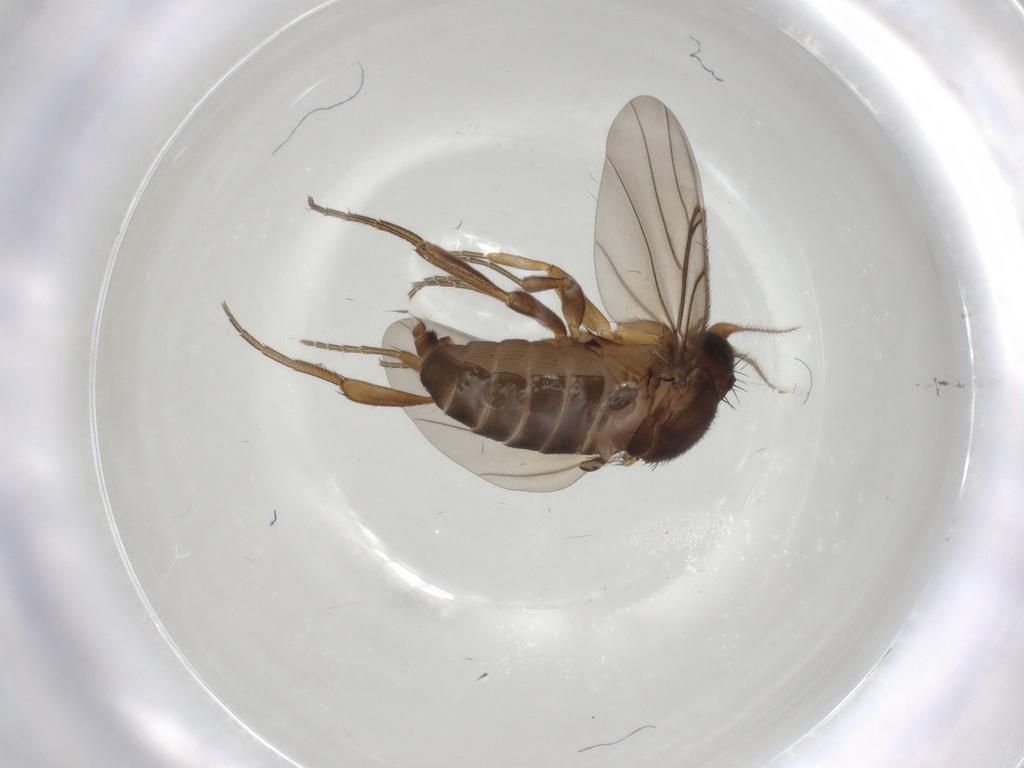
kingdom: Animalia
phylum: Arthropoda
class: Insecta
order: Diptera
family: Phoridae
